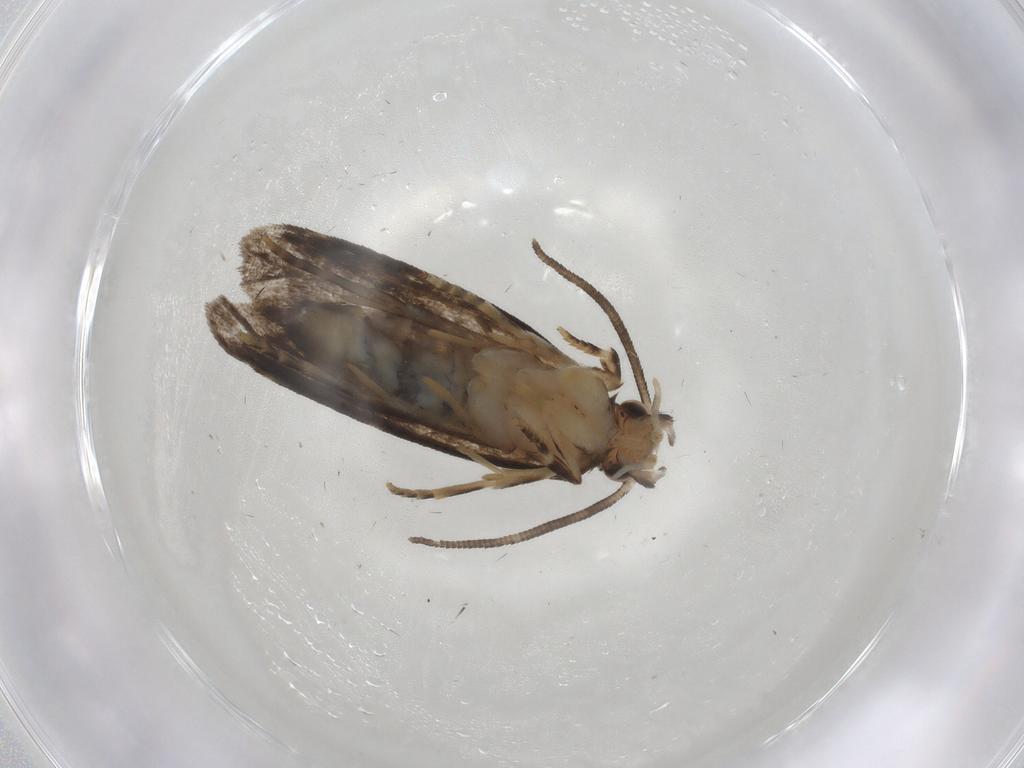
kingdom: Animalia
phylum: Arthropoda
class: Insecta
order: Lepidoptera
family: Dryadaulidae
